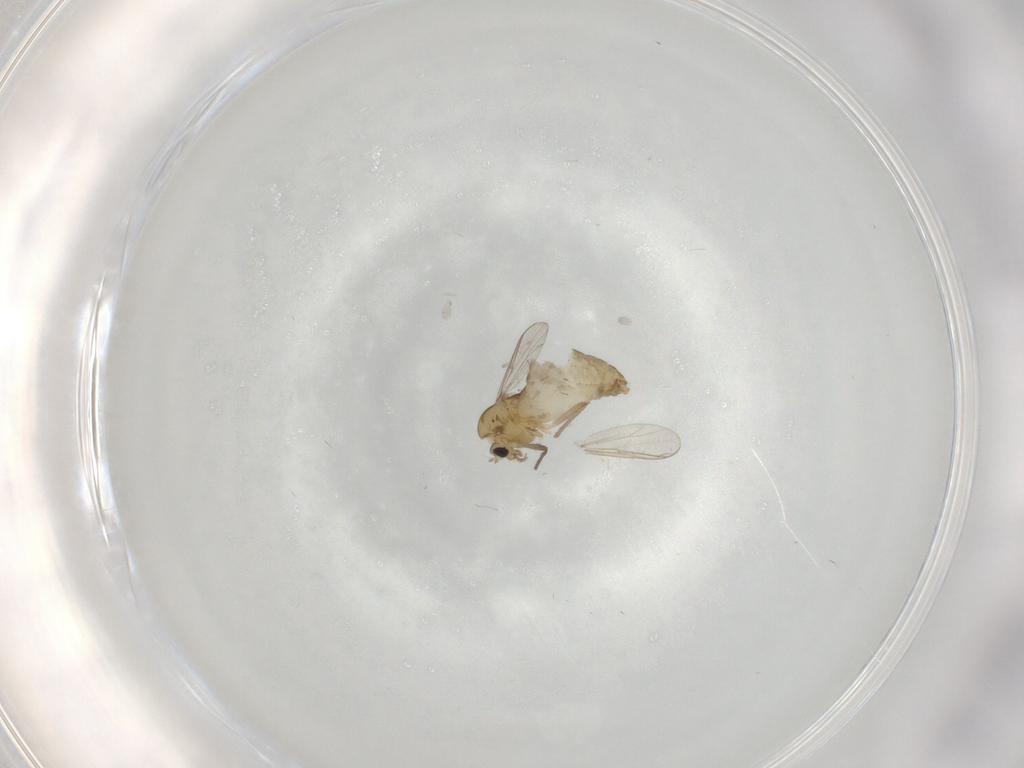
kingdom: Animalia
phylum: Arthropoda
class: Insecta
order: Diptera
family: Chironomidae
